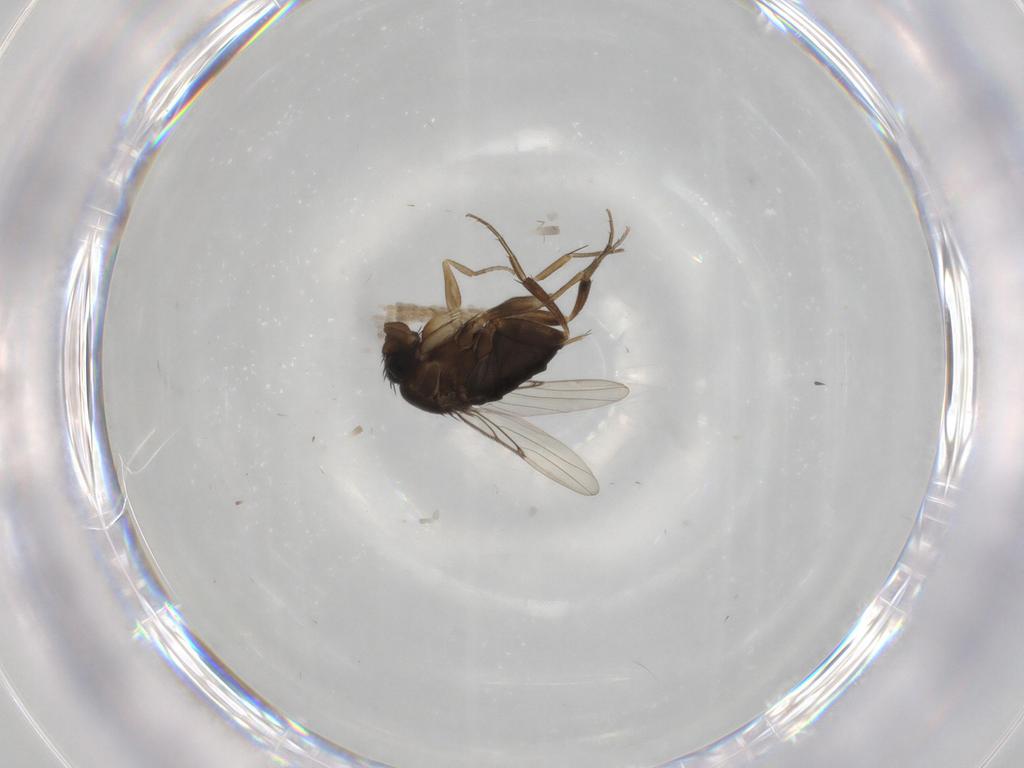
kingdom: Animalia
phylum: Arthropoda
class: Insecta
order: Diptera
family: Phoridae
